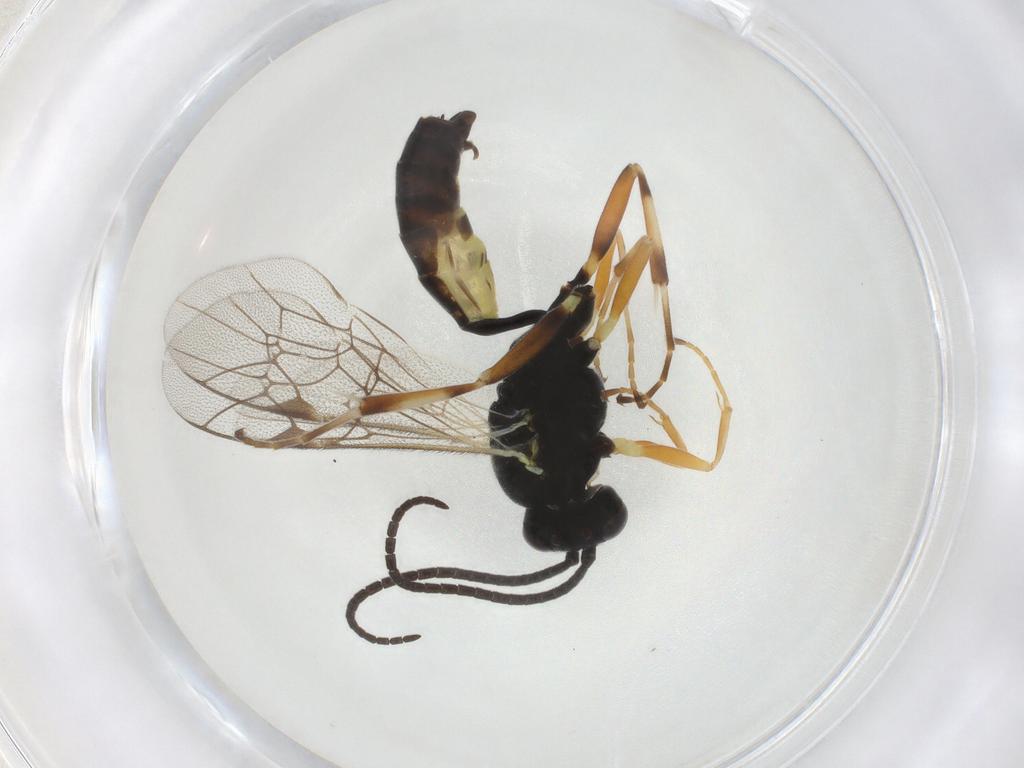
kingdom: Animalia
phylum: Arthropoda
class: Insecta
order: Hymenoptera
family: Ichneumonidae
